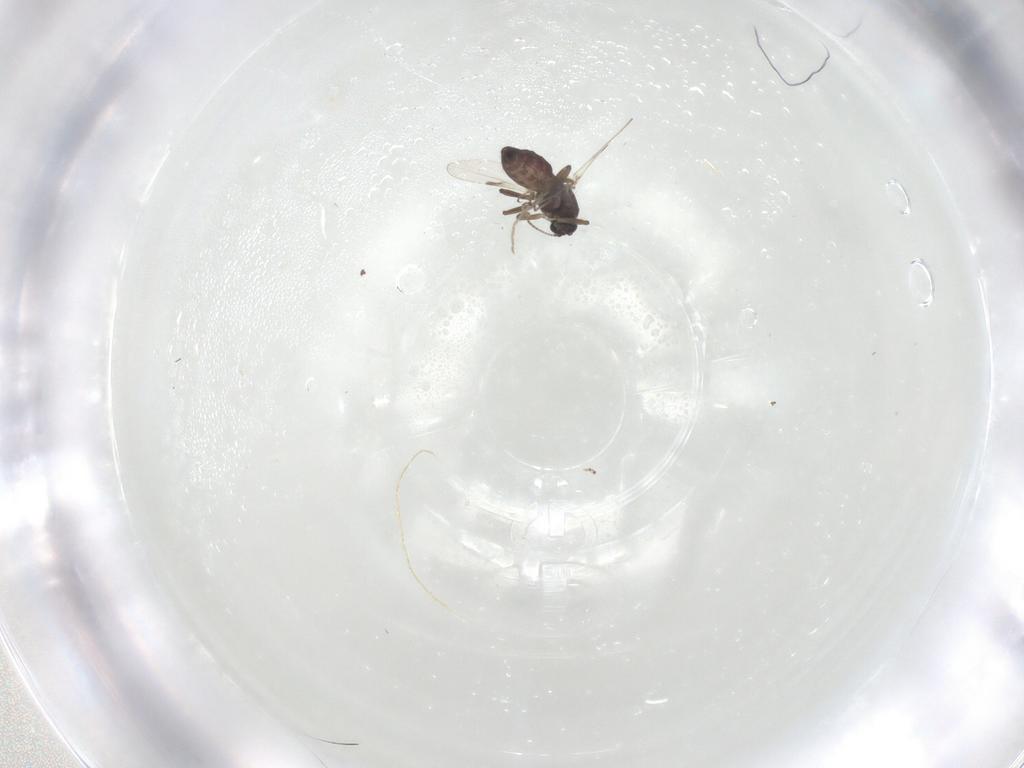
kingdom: Animalia
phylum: Arthropoda
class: Insecta
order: Diptera
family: Ceratopogonidae
